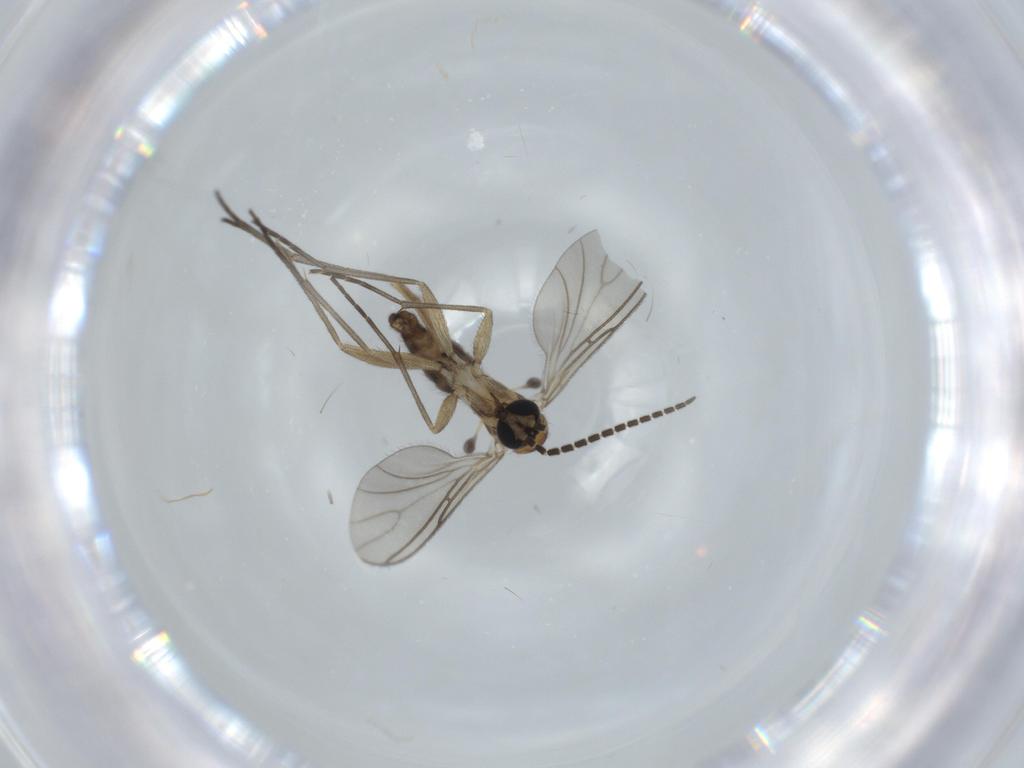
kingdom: Animalia
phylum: Arthropoda
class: Insecta
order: Diptera
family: Sciaridae
